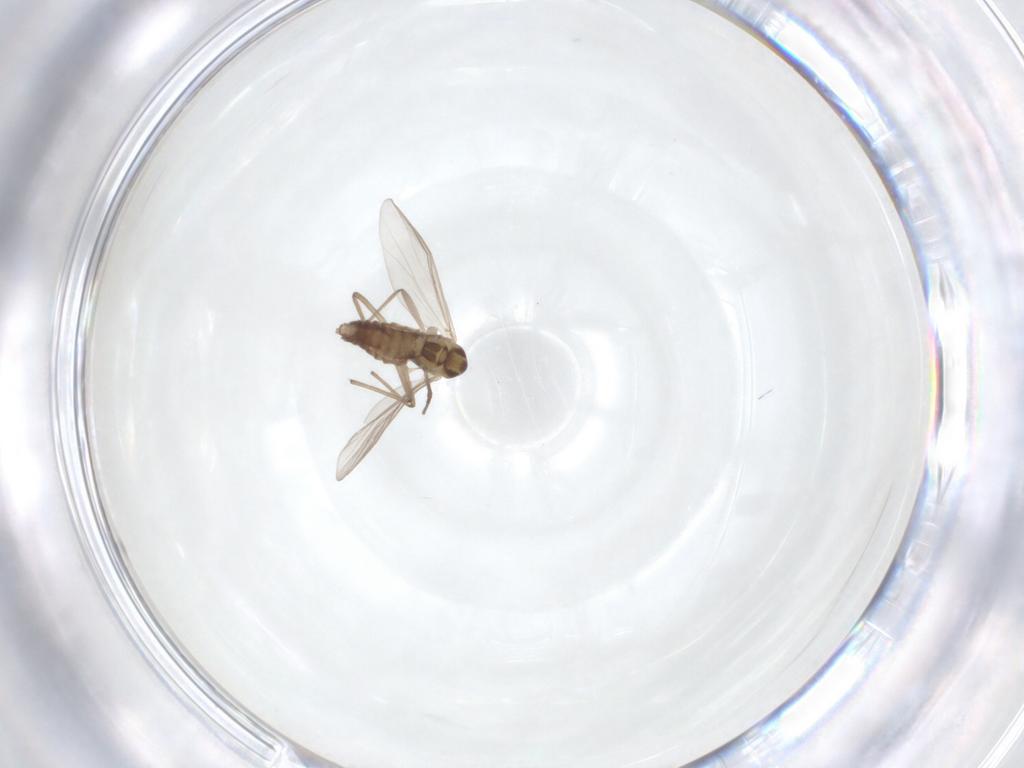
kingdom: Animalia
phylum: Arthropoda
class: Insecta
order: Diptera
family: Chironomidae
